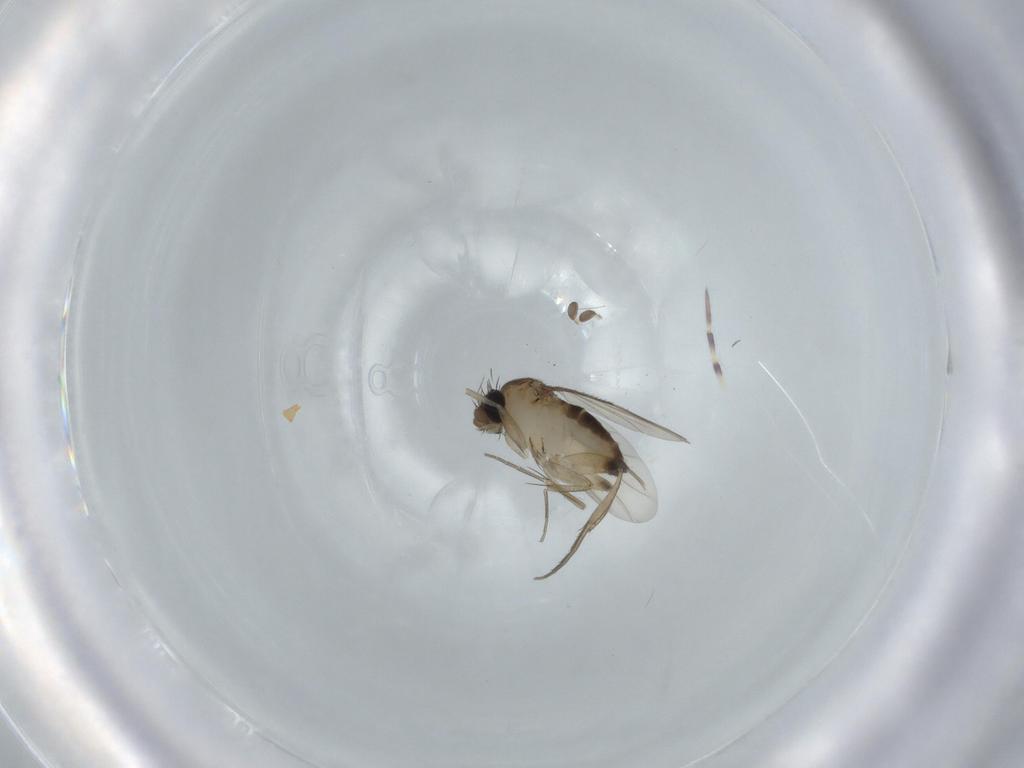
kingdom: Animalia
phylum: Arthropoda
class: Insecta
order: Diptera
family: Phoridae
